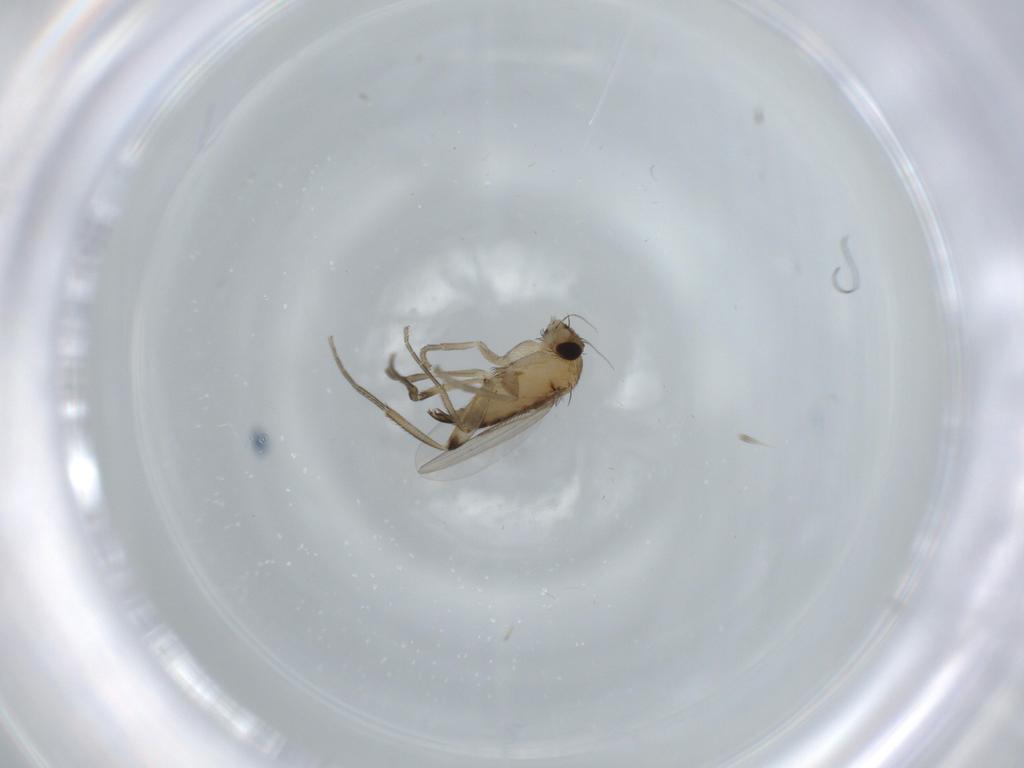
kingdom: Animalia
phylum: Arthropoda
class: Insecta
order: Diptera
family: Phoridae
